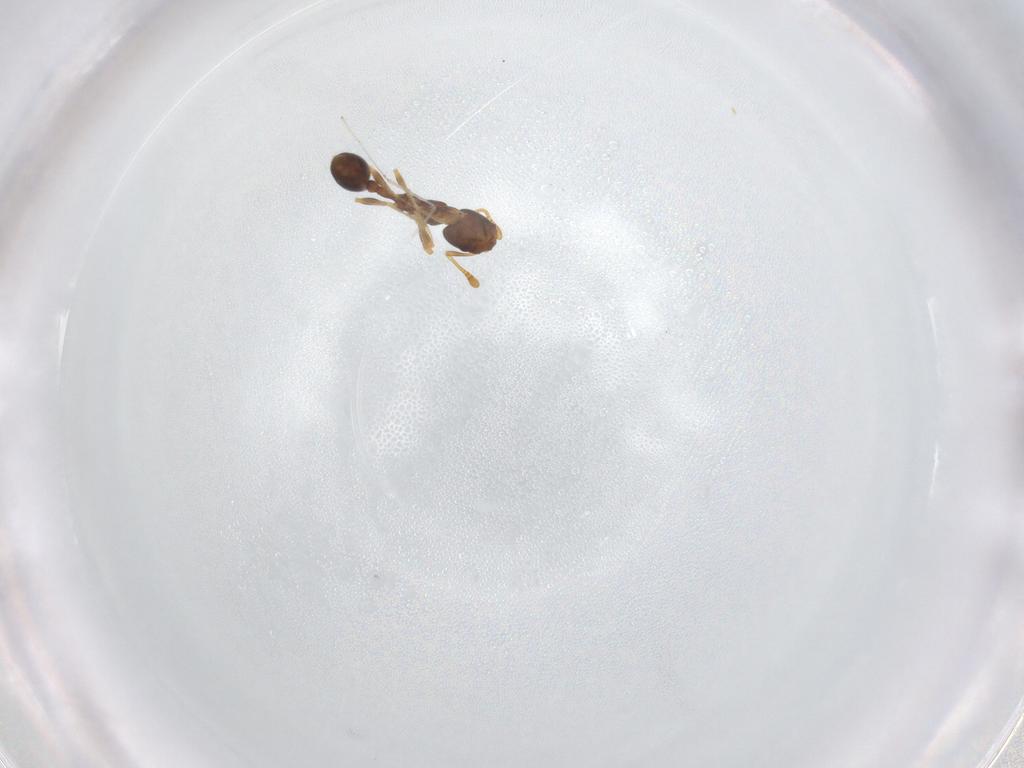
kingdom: Animalia
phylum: Arthropoda
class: Insecta
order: Hymenoptera
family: Formicidae
